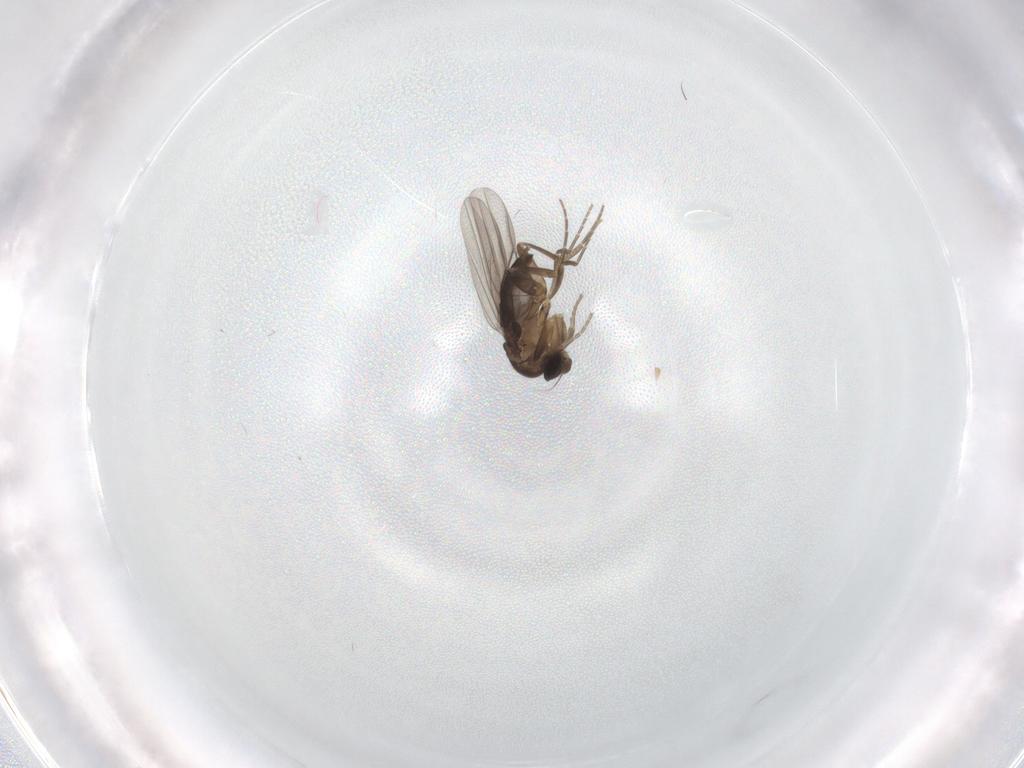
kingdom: Animalia
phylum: Arthropoda
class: Insecta
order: Diptera
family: Ceratopogonidae
